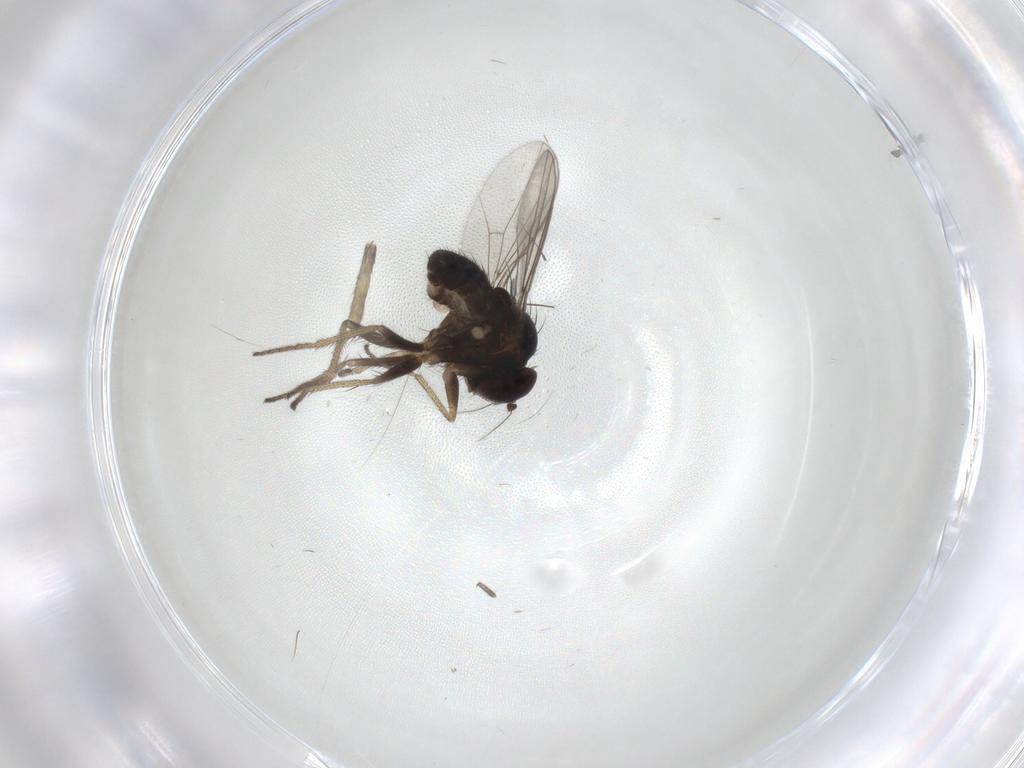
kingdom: Animalia
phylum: Arthropoda
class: Insecta
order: Diptera
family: Mycetophilidae
